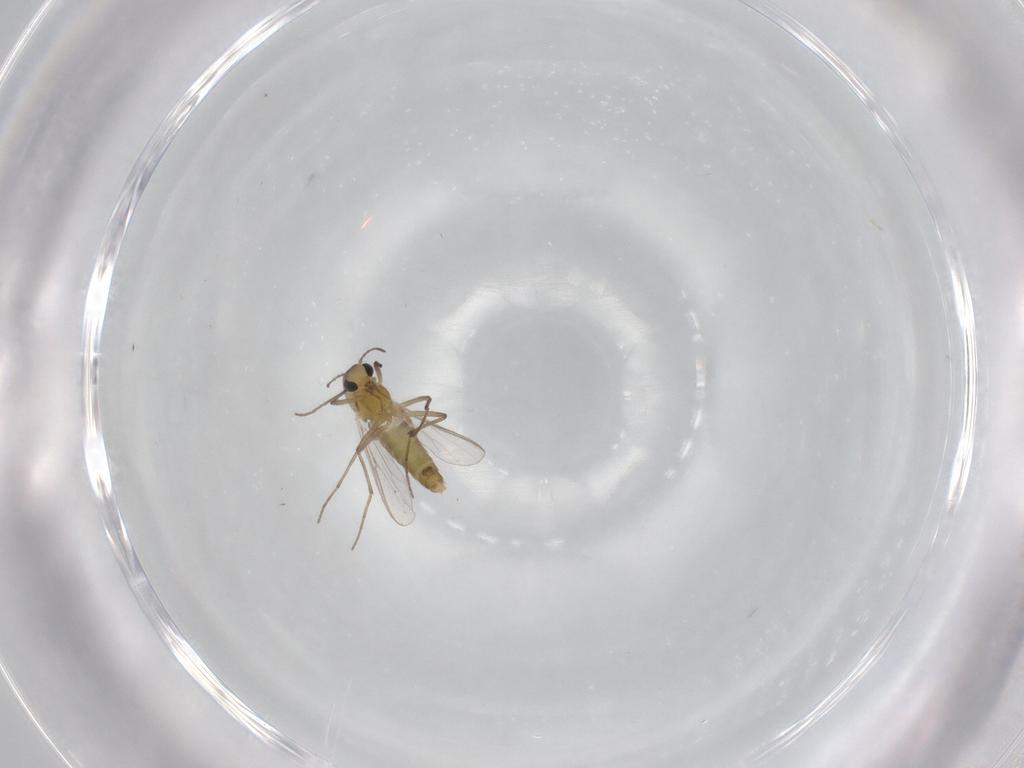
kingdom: Animalia
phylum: Arthropoda
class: Insecta
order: Diptera
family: Chironomidae
